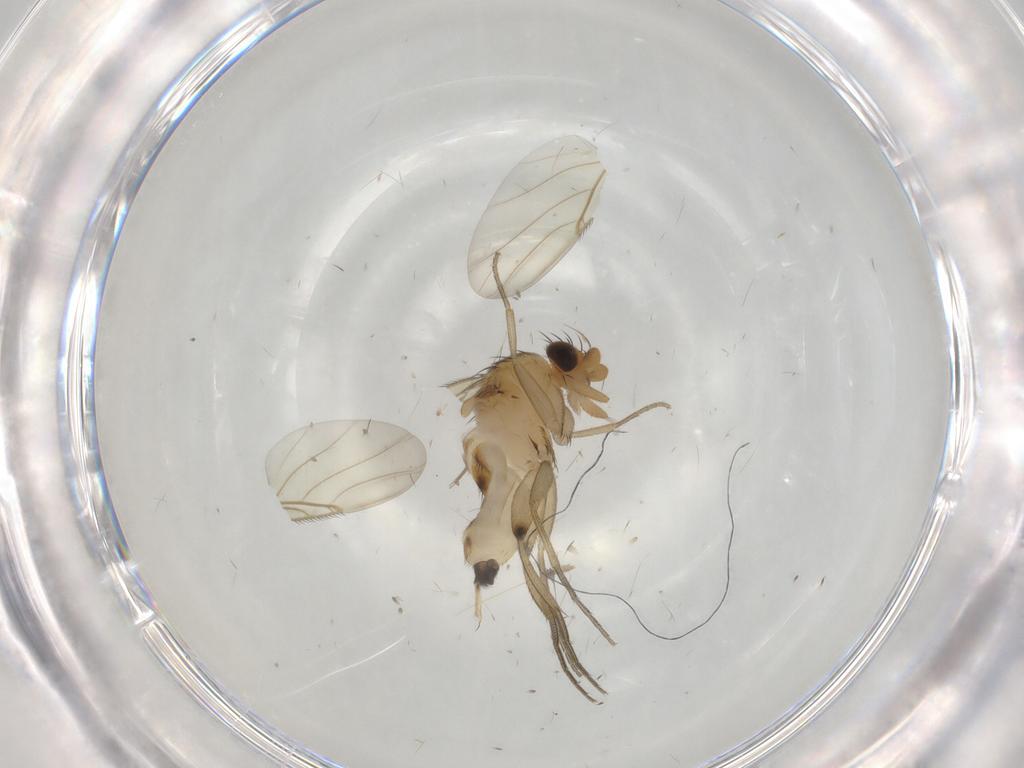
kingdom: Animalia
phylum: Arthropoda
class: Insecta
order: Diptera
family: Phoridae
